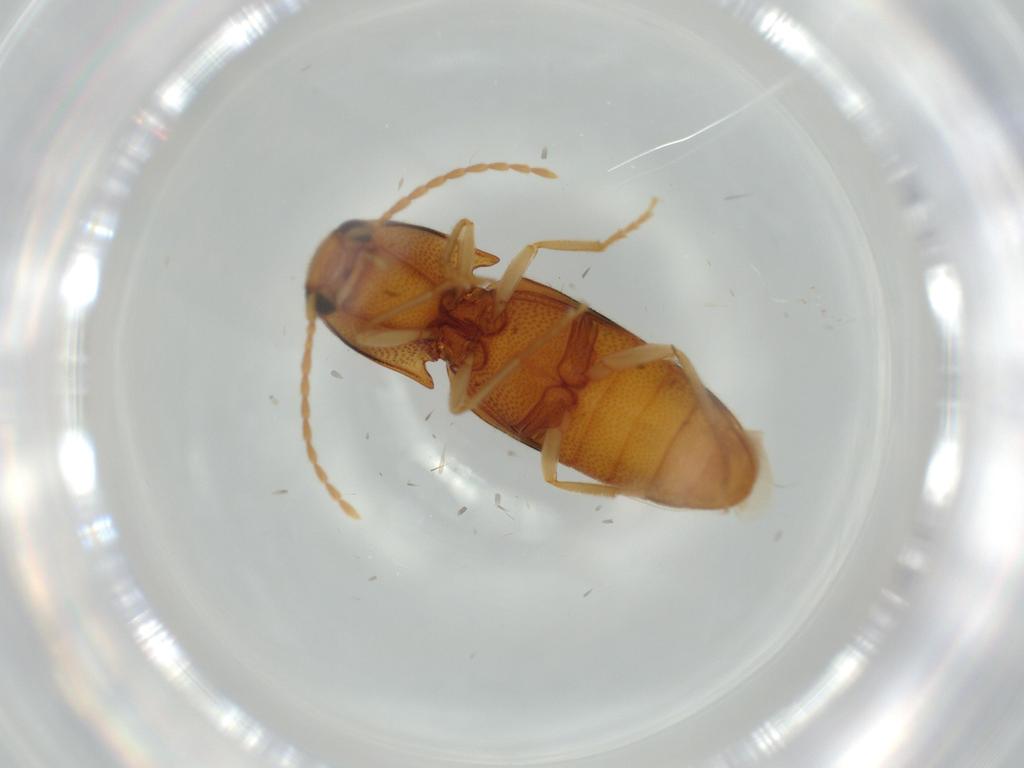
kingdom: Animalia
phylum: Arthropoda
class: Insecta
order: Coleoptera
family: Elateridae
